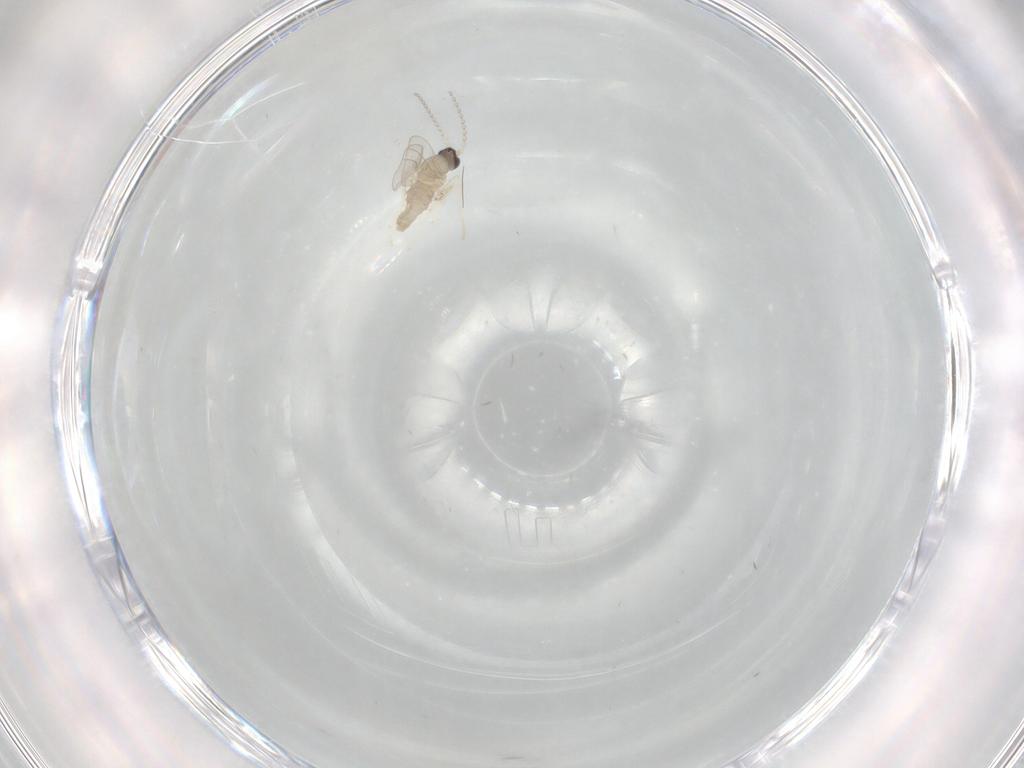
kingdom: Animalia
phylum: Arthropoda
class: Insecta
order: Diptera
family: Cecidomyiidae
